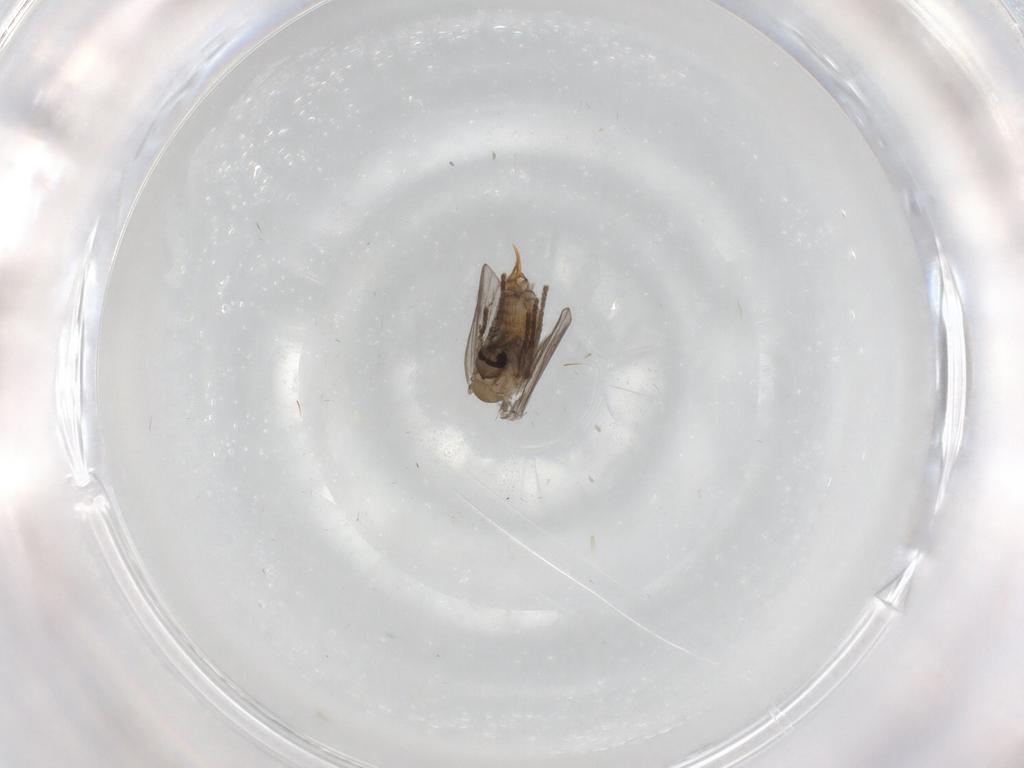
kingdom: Animalia
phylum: Arthropoda
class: Insecta
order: Diptera
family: Psychodidae
